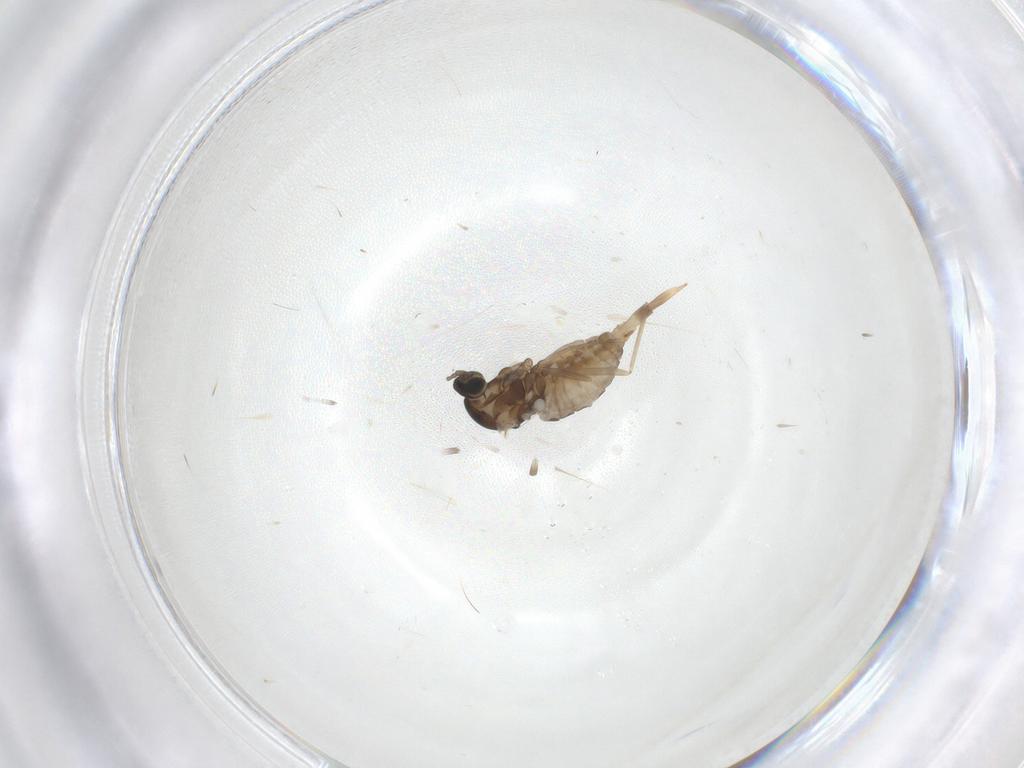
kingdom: Animalia
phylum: Arthropoda
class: Insecta
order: Diptera
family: Cecidomyiidae
